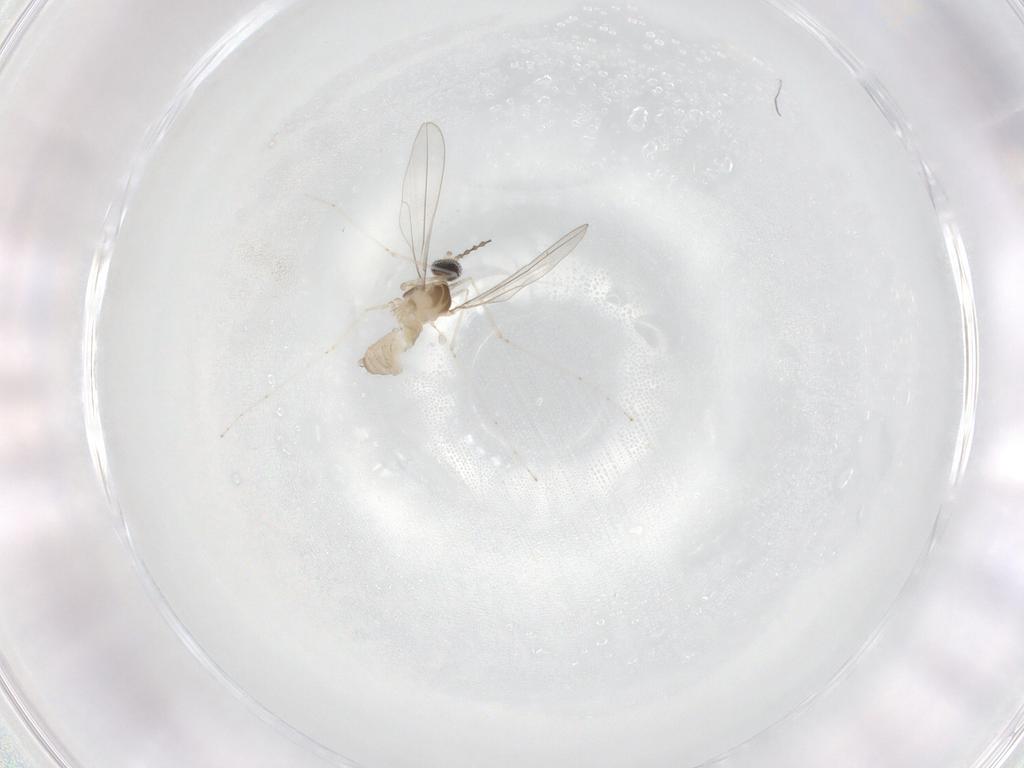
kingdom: Animalia
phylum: Arthropoda
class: Insecta
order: Diptera
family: Cecidomyiidae
